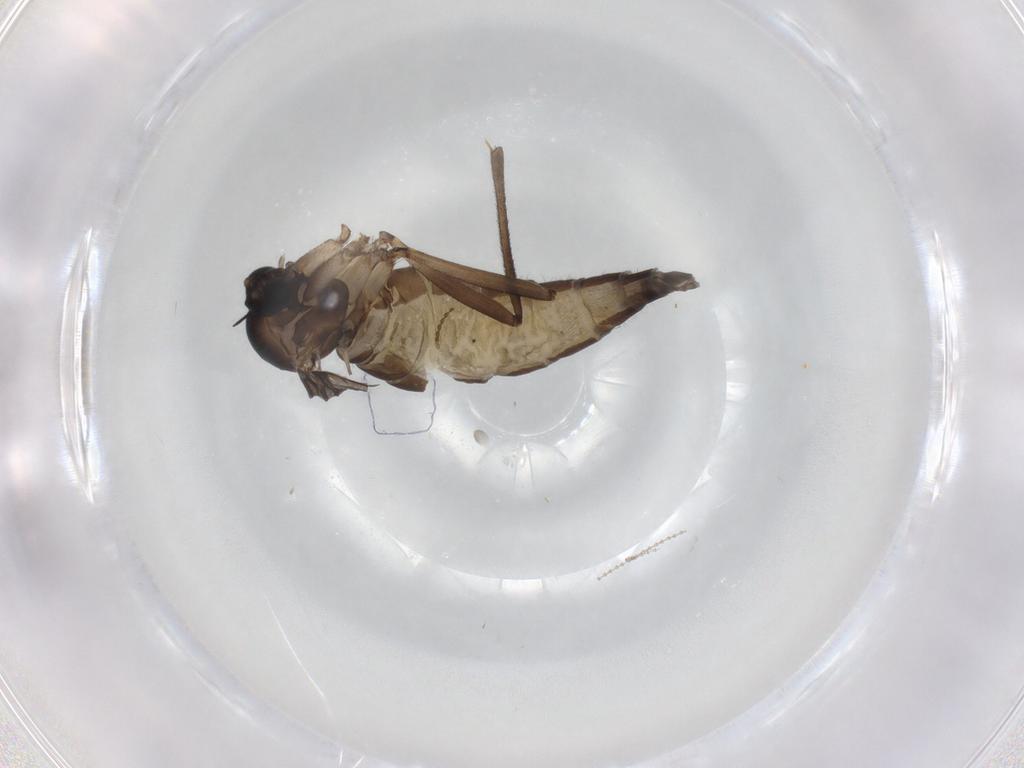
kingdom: Animalia
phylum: Arthropoda
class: Insecta
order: Diptera
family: Sciaridae
